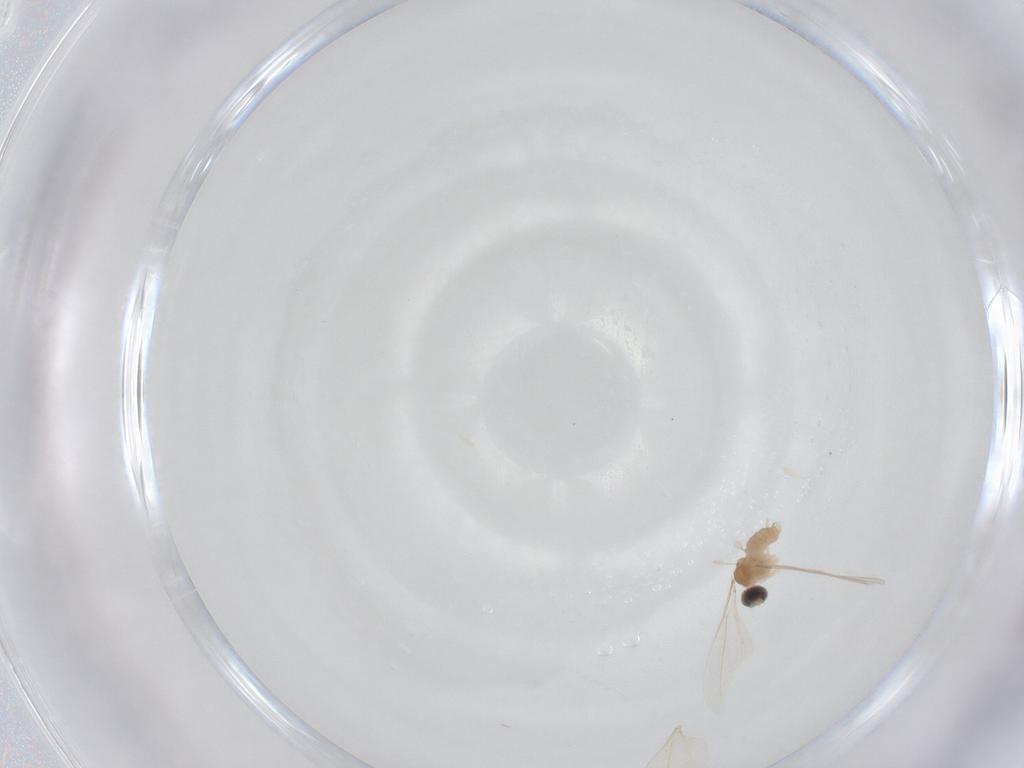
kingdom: Animalia
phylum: Arthropoda
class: Insecta
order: Diptera
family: Cecidomyiidae
